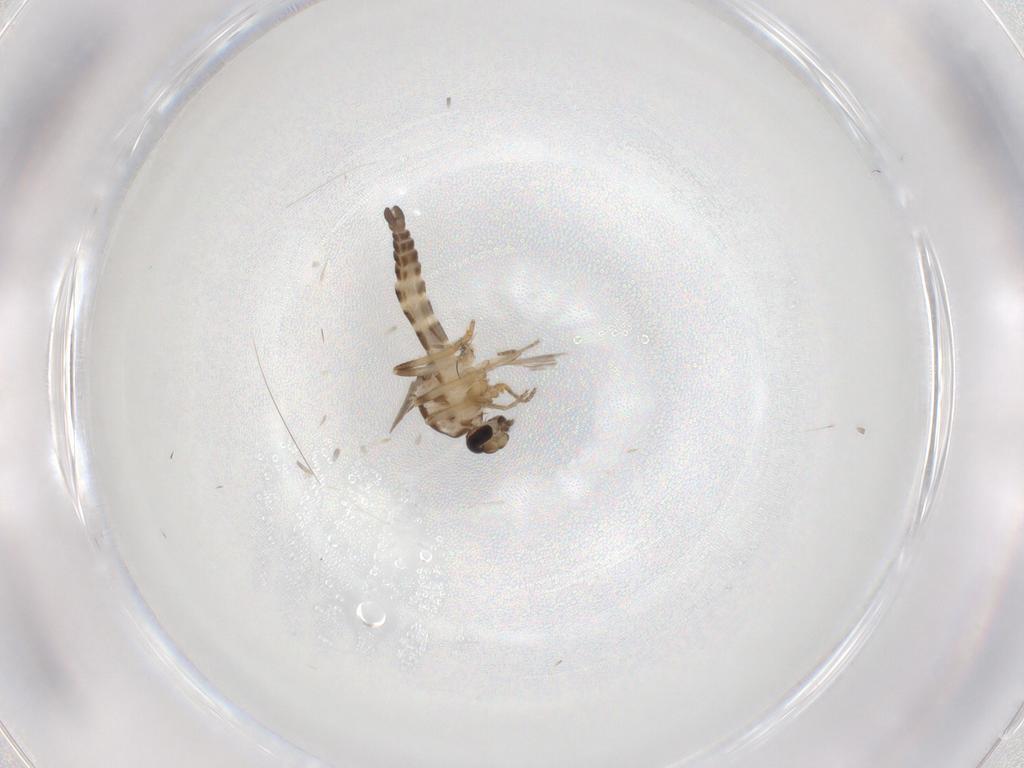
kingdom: Animalia
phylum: Arthropoda
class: Insecta
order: Diptera
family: Ceratopogonidae
